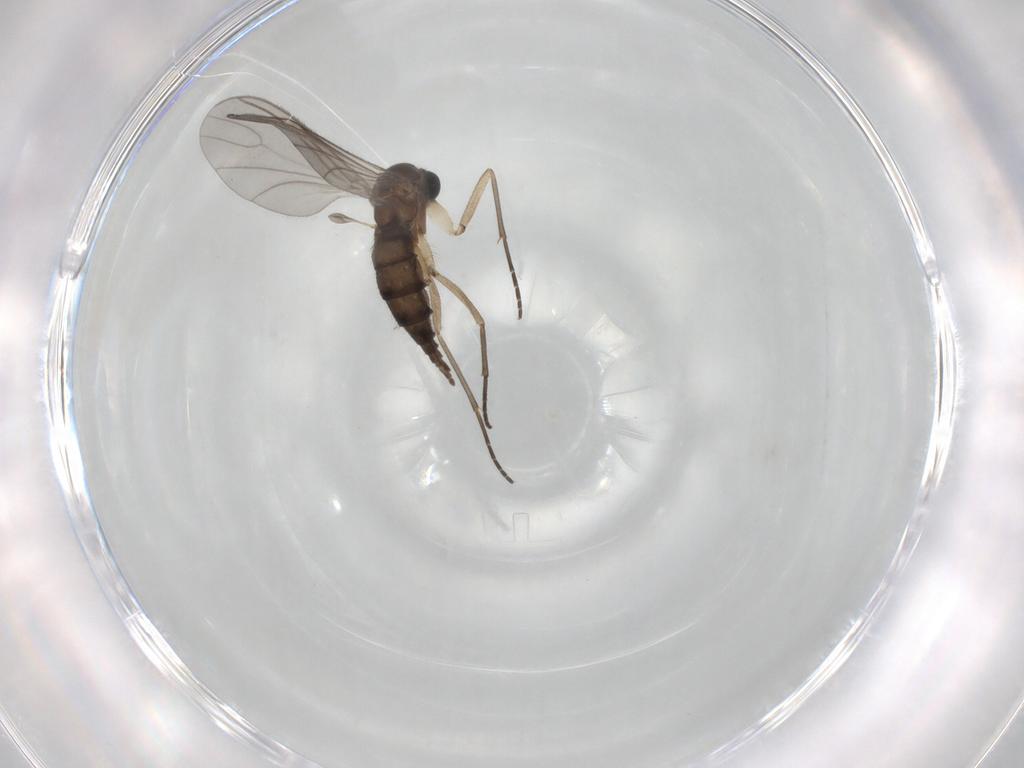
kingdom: Animalia
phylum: Arthropoda
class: Insecta
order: Diptera
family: Sciaridae
